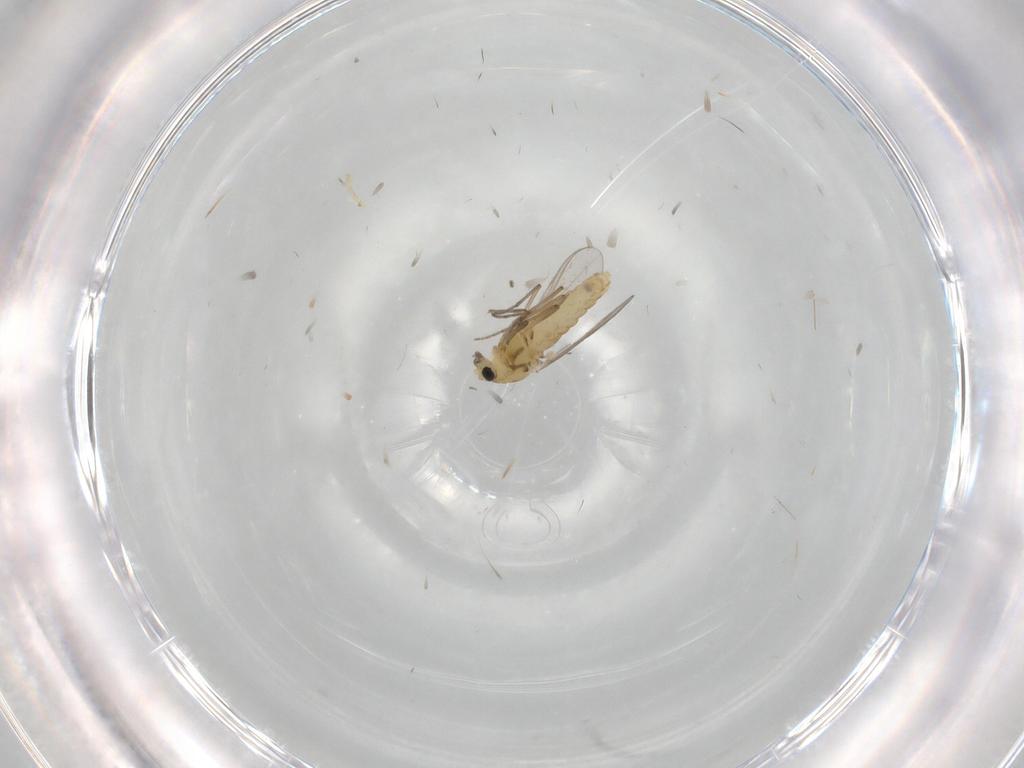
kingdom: Animalia
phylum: Arthropoda
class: Insecta
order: Diptera
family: Chironomidae
